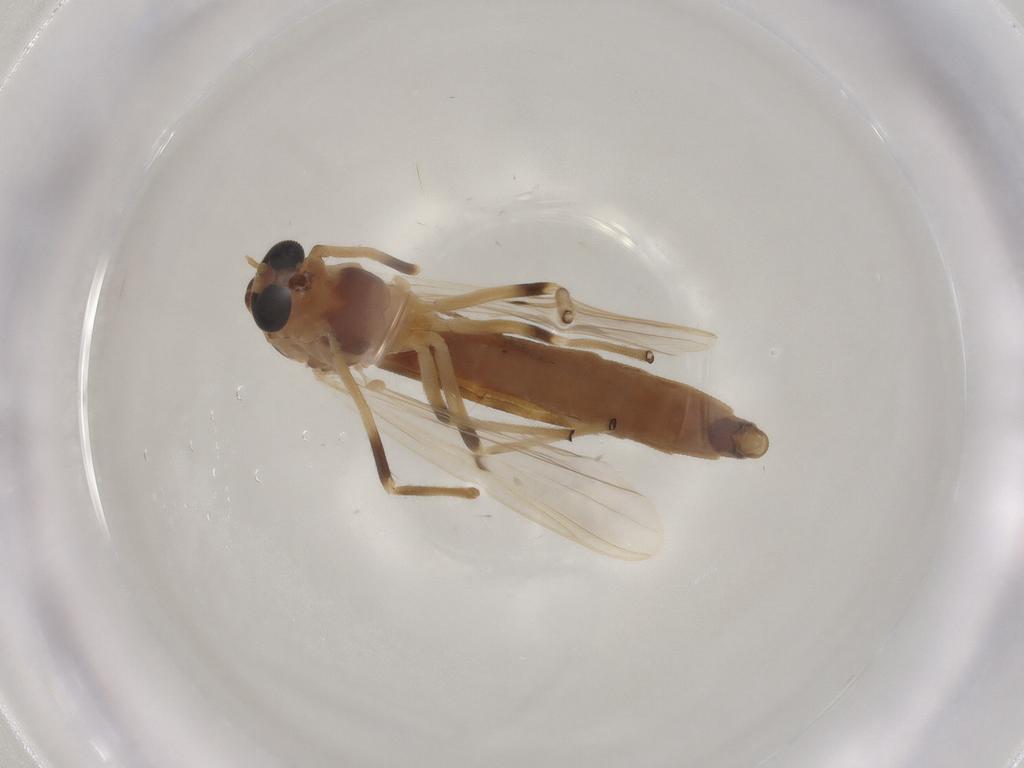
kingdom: Animalia
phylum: Arthropoda
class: Insecta
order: Diptera
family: Chironomidae
